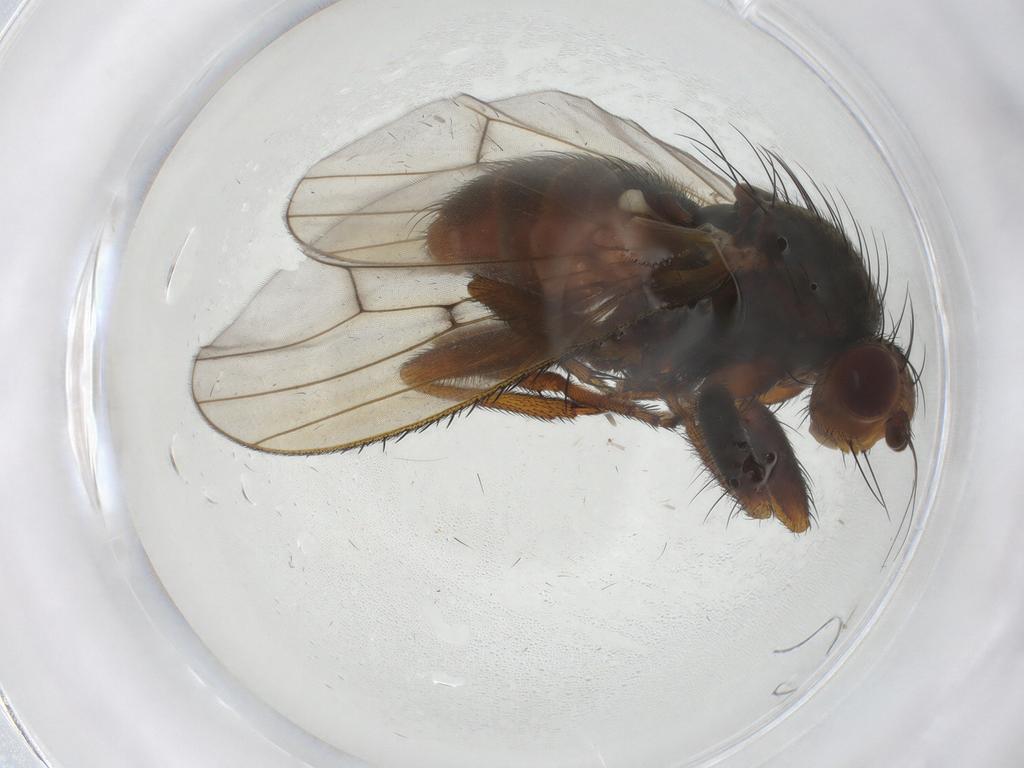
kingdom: Animalia
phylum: Arthropoda
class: Insecta
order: Diptera
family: Heleomyzidae
